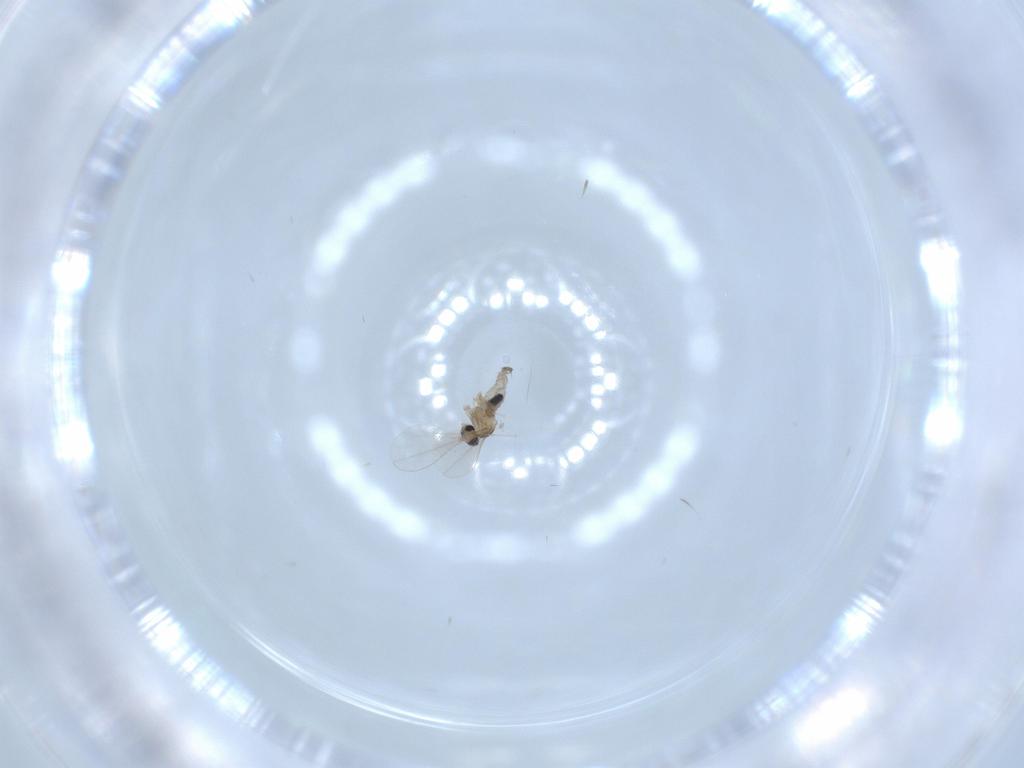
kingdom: Animalia
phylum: Arthropoda
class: Insecta
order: Diptera
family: Cecidomyiidae
